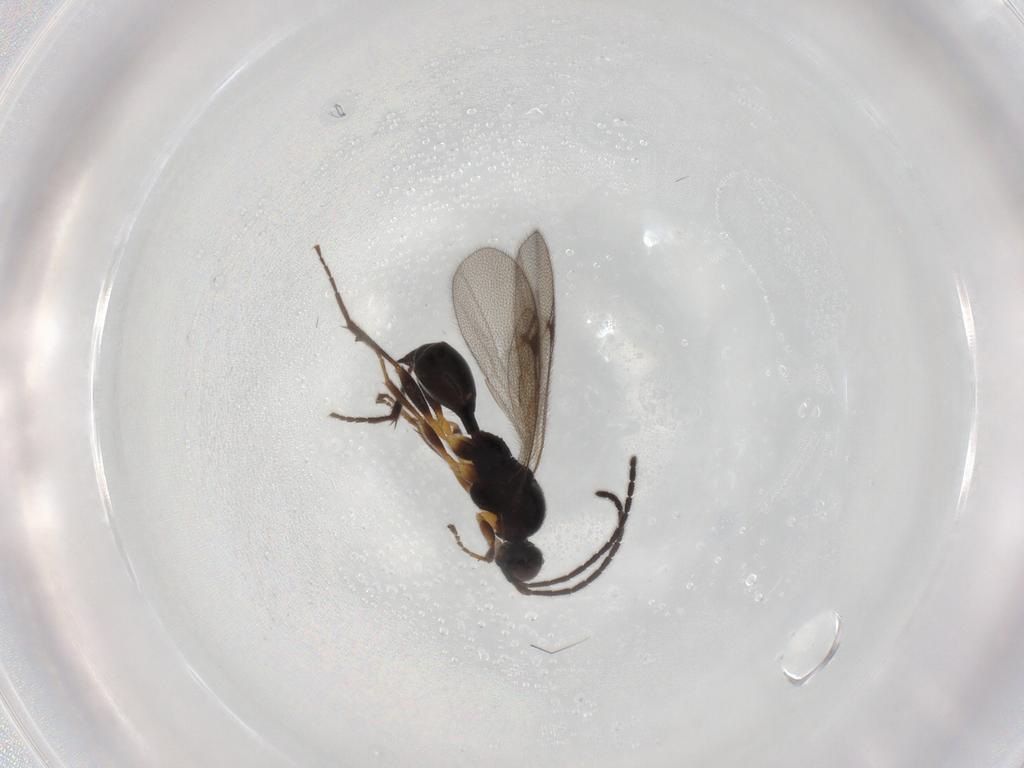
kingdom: Animalia
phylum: Arthropoda
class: Insecta
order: Hymenoptera
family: Proctotrupidae
